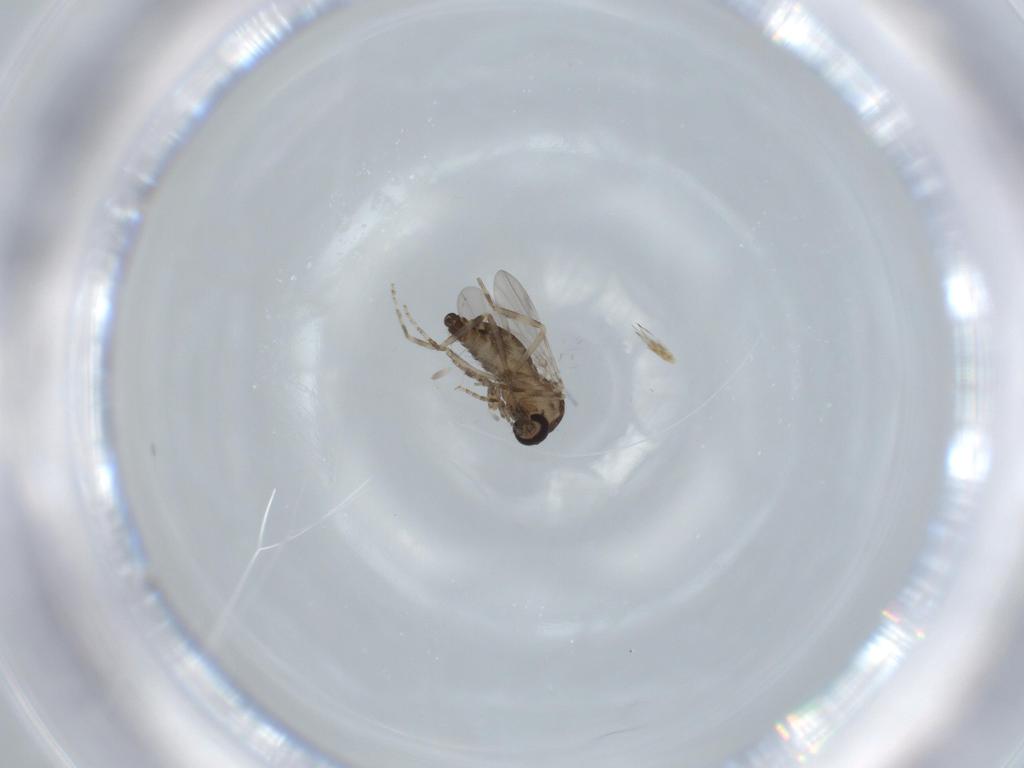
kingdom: Animalia
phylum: Arthropoda
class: Insecta
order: Diptera
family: Ceratopogonidae
